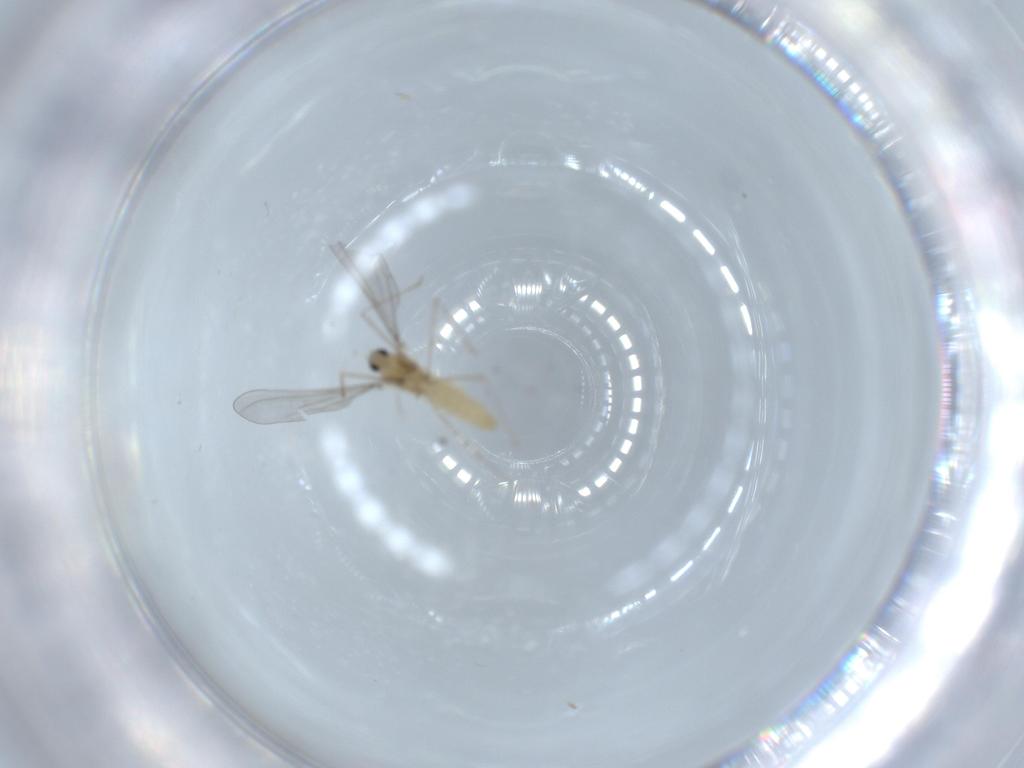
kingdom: Animalia
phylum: Arthropoda
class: Insecta
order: Diptera
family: Cecidomyiidae
